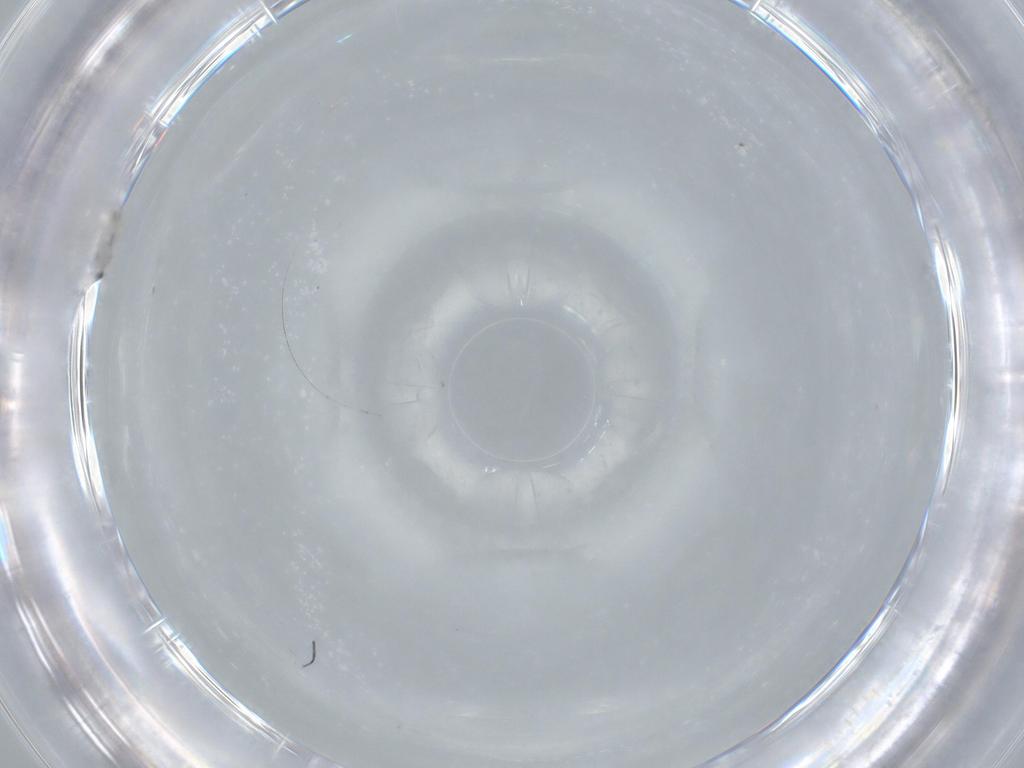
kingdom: Animalia
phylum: Arthropoda
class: Insecta
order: Diptera
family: Cecidomyiidae
